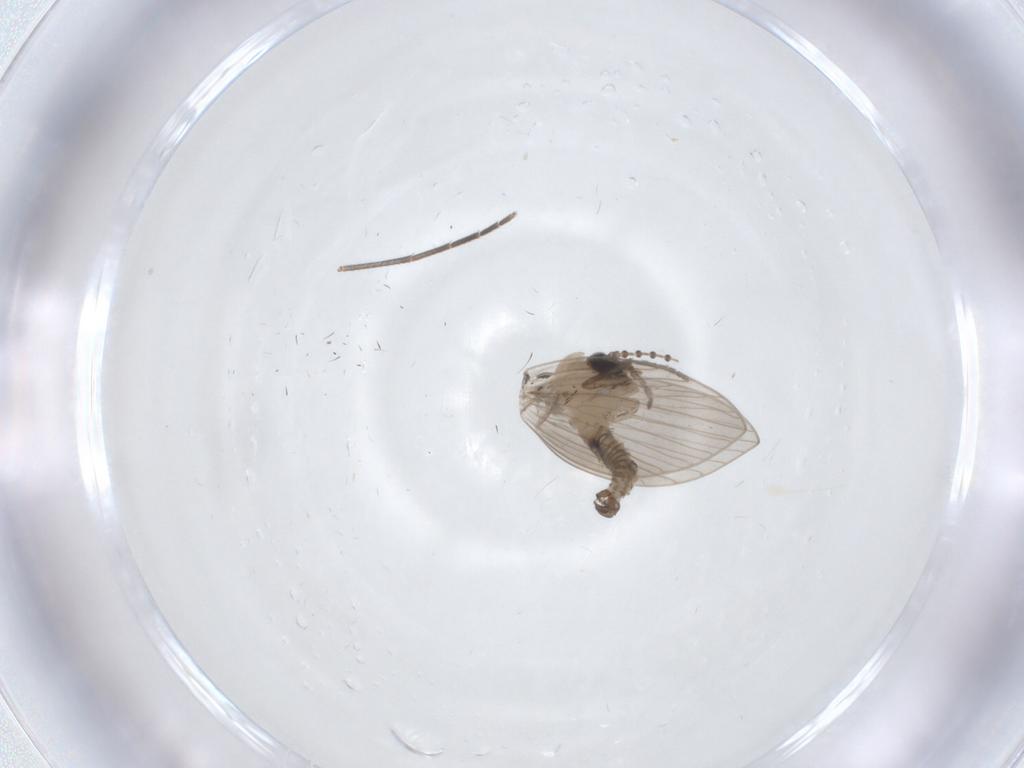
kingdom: Animalia
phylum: Arthropoda
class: Insecta
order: Diptera
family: Psychodidae
